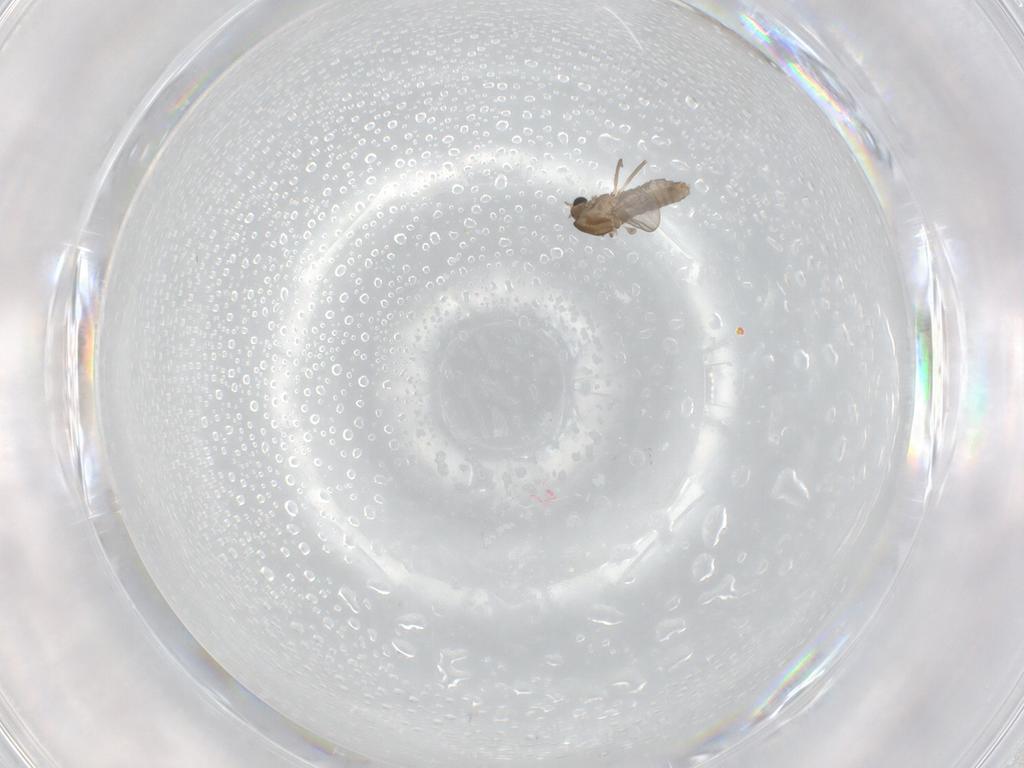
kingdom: Animalia
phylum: Arthropoda
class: Insecta
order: Diptera
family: Chironomidae
